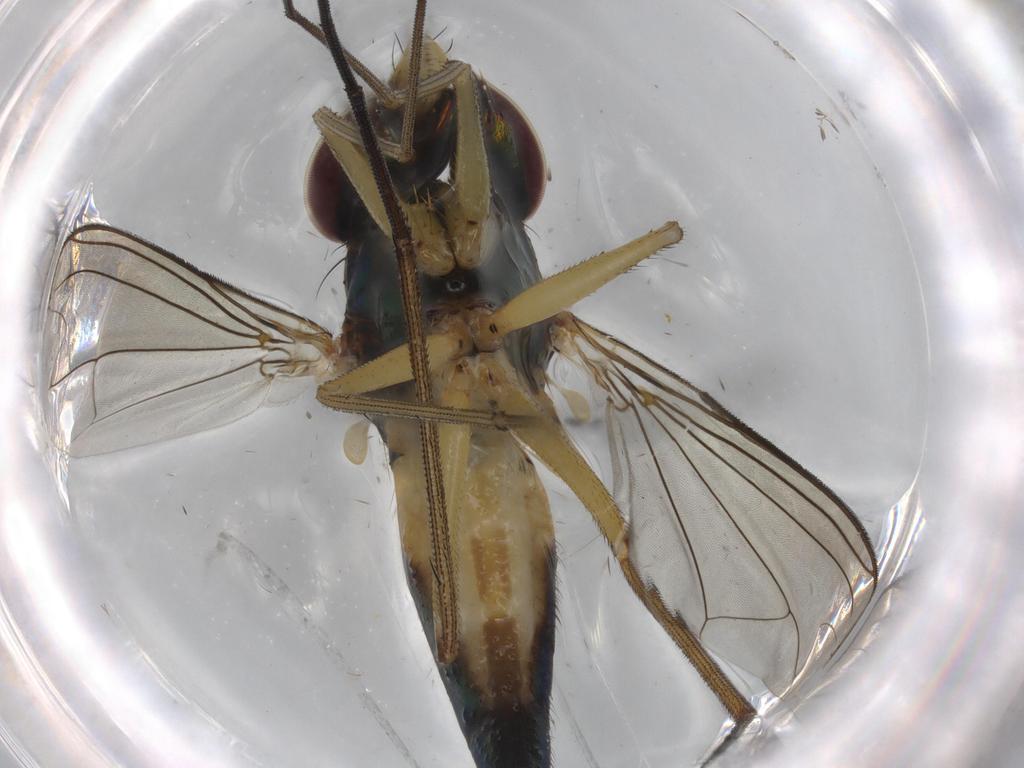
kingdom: Animalia
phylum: Arthropoda
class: Insecta
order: Diptera
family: Dolichopodidae
